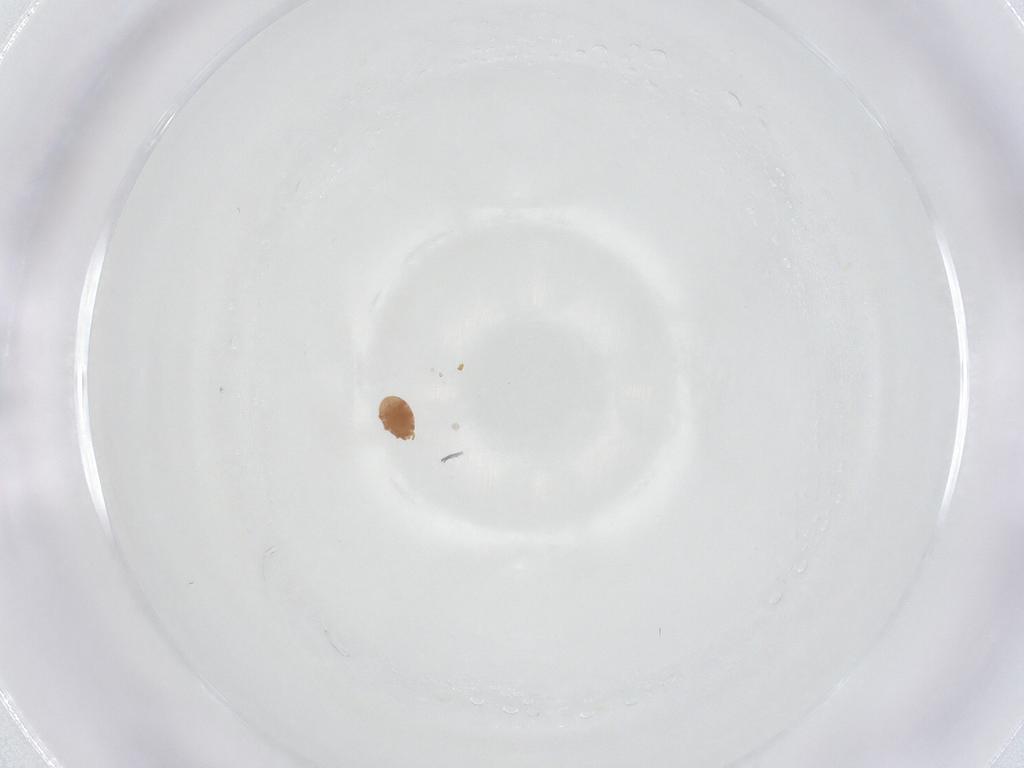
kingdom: Animalia
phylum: Arthropoda
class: Arachnida
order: Mesostigmata
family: Trematuridae
